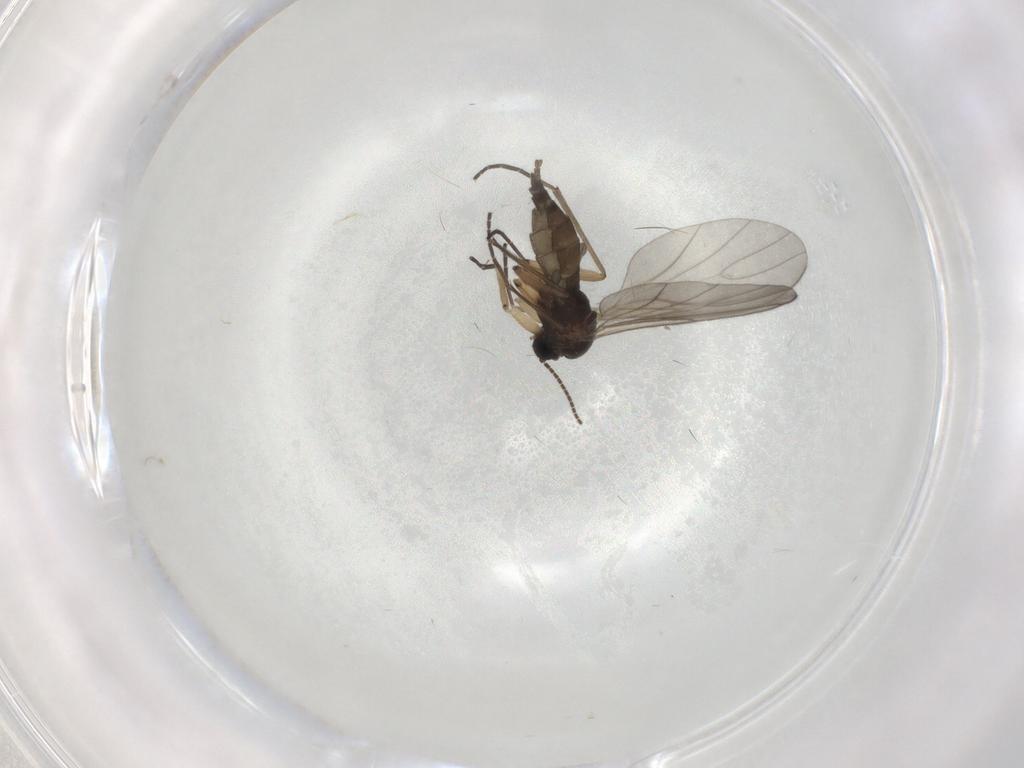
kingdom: Animalia
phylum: Arthropoda
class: Insecta
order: Diptera
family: Sciaridae
